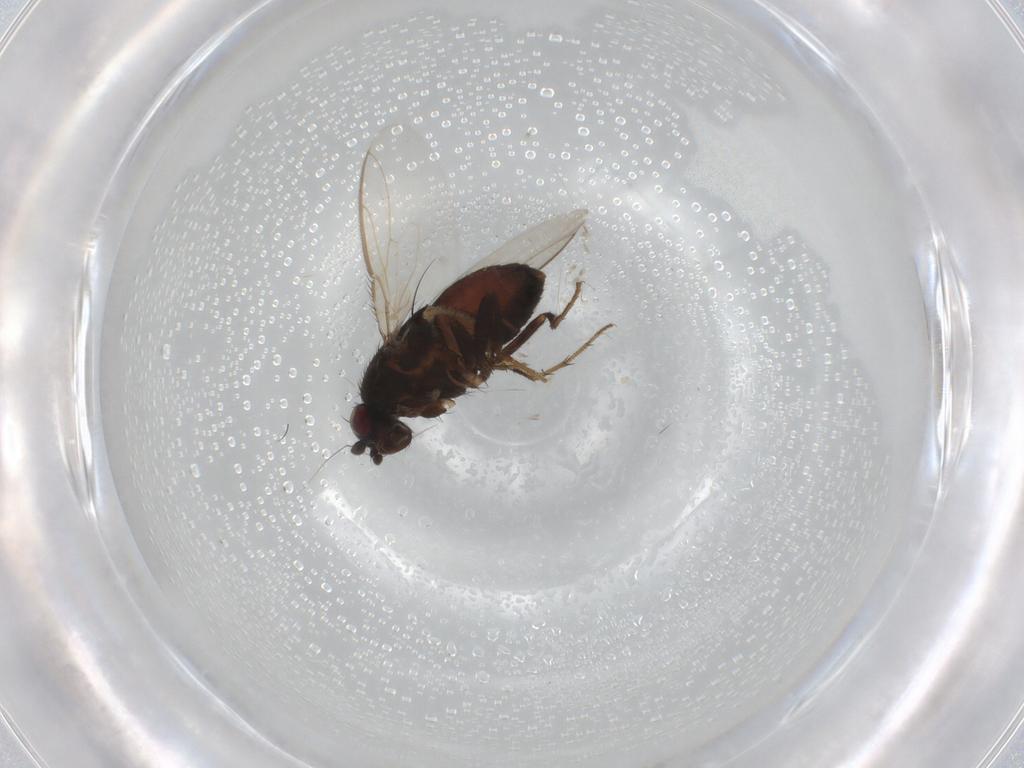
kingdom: Animalia
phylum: Arthropoda
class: Insecta
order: Diptera
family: Sphaeroceridae
